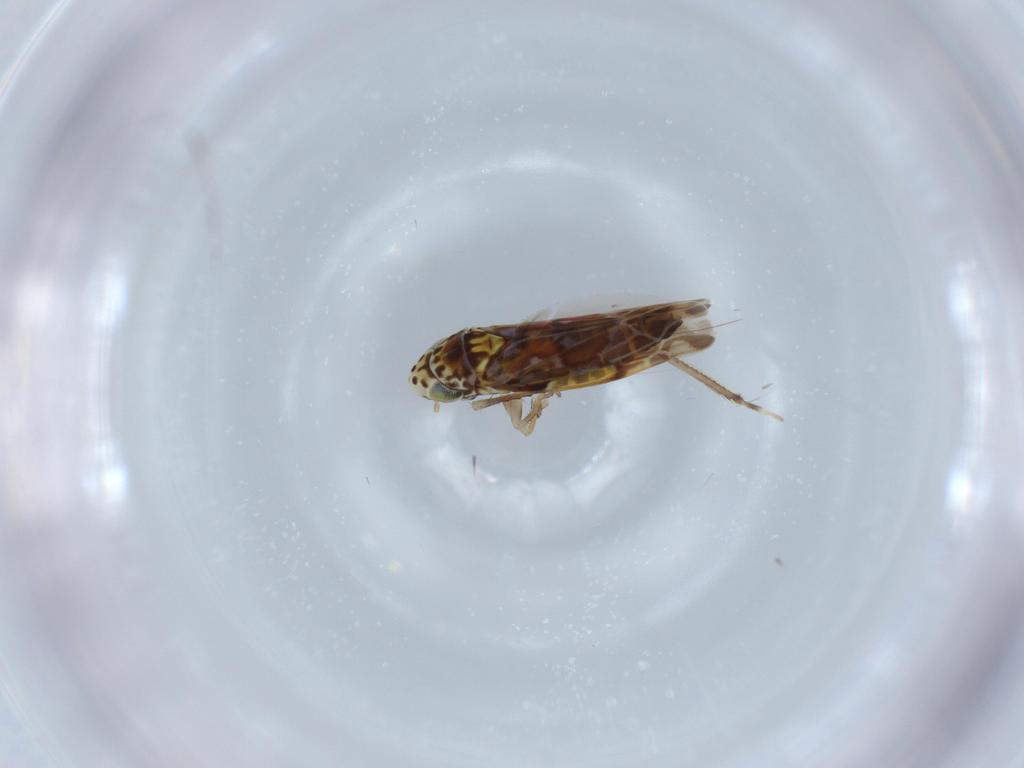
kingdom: Animalia
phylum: Arthropoda
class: Insecta
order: Hemiptera
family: Cicadellidae
